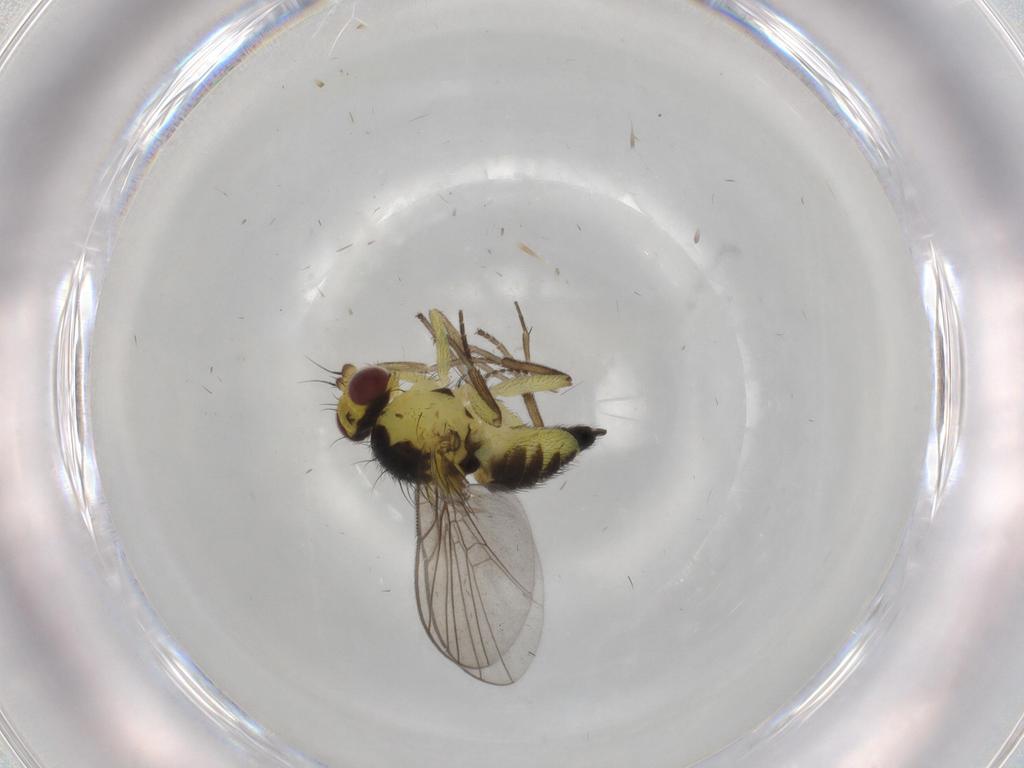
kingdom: Animalia
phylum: Arthropoda
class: Insecta
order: Diptera
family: Agromyzidae
